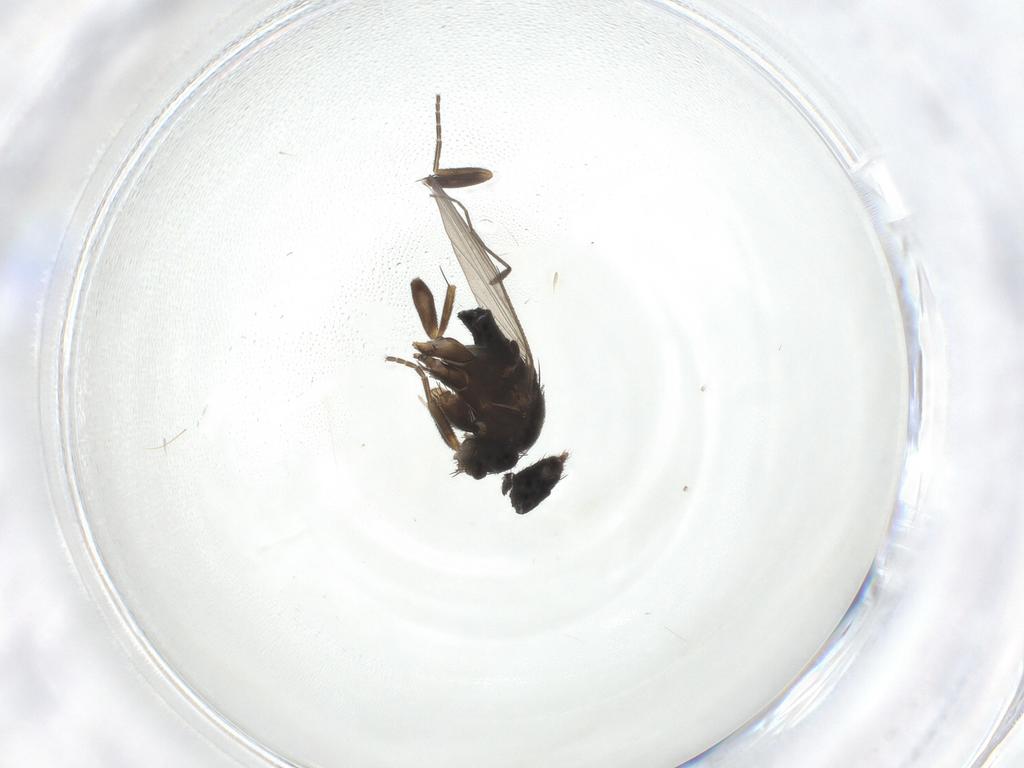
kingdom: Animalia
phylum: Arthropoda
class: Insecta
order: Diptera
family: Phoridae
